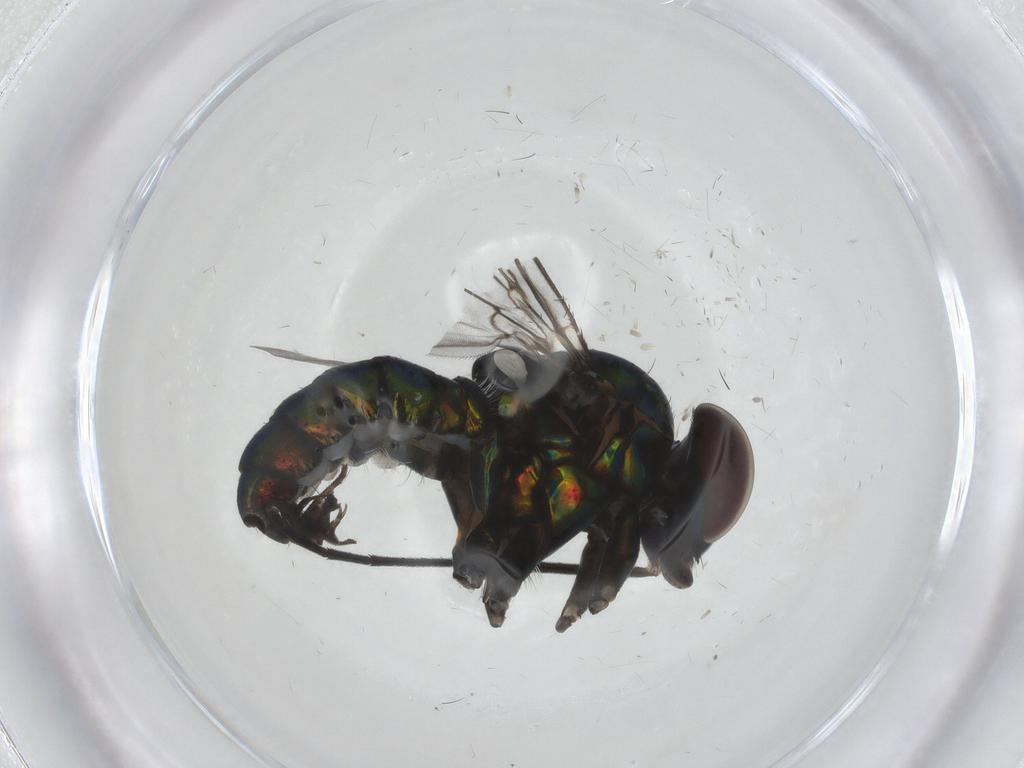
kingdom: Animalia
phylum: Arthropoda
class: Insecta
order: Diptera
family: Dolichopodidae
